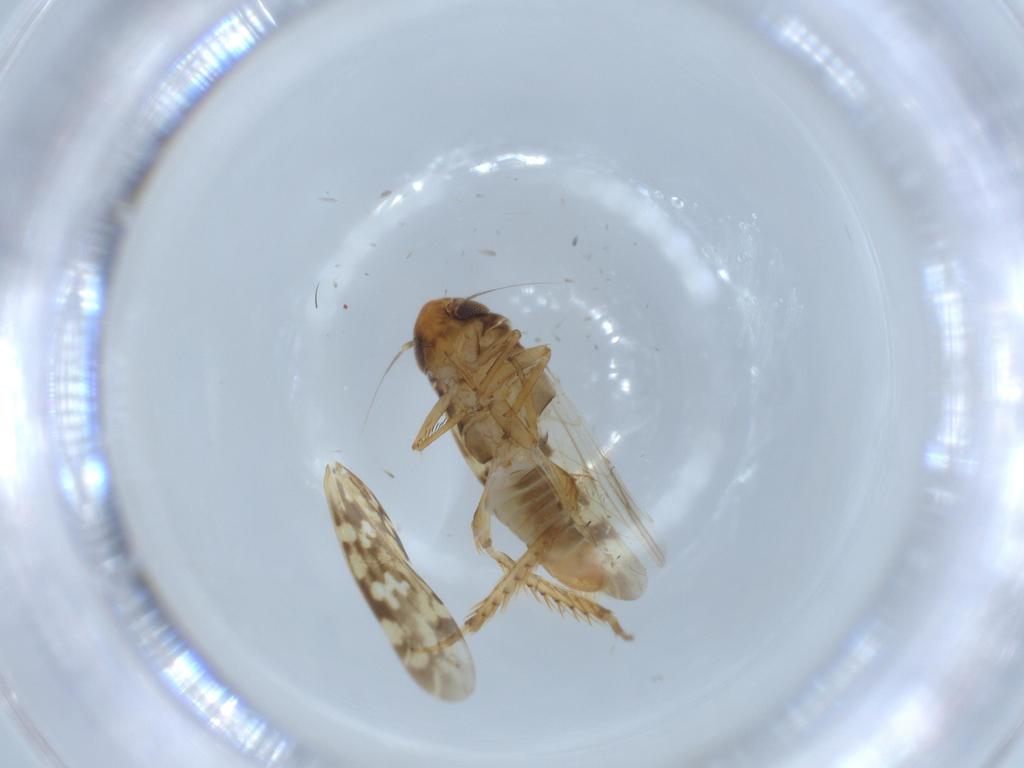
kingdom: Animalia
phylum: Arthropoda
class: Insecta
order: Hemiptera
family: Cicadellidae
